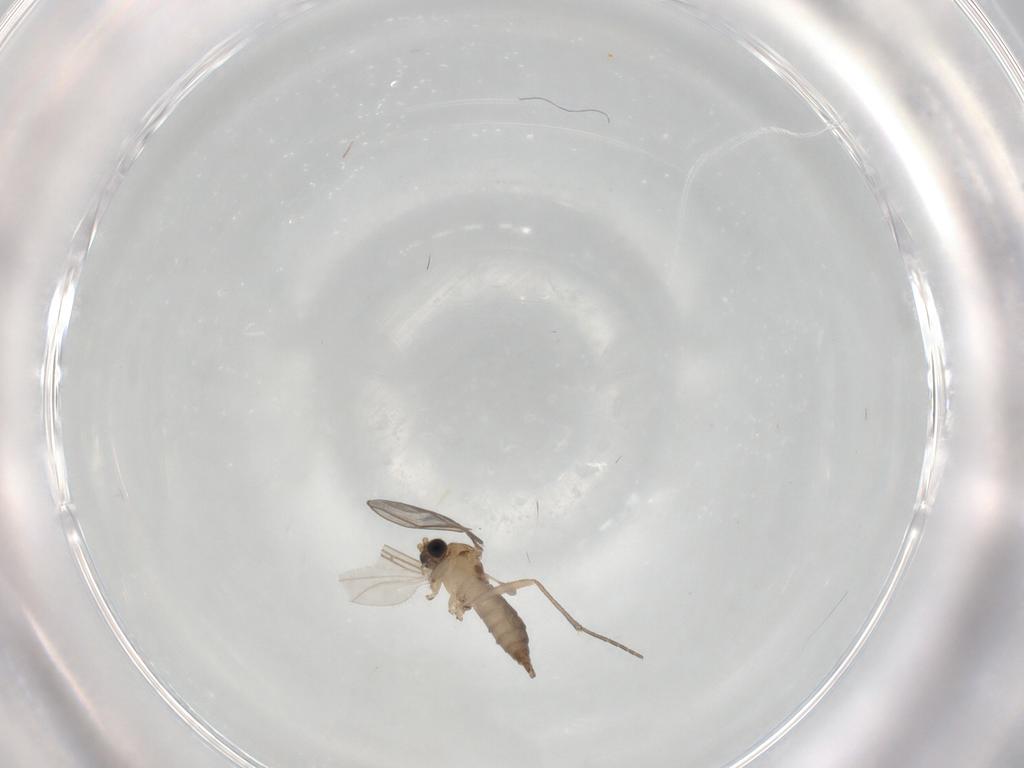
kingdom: Animalia
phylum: Arthropoda
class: Insecta
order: Diptera
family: Sciaridae
